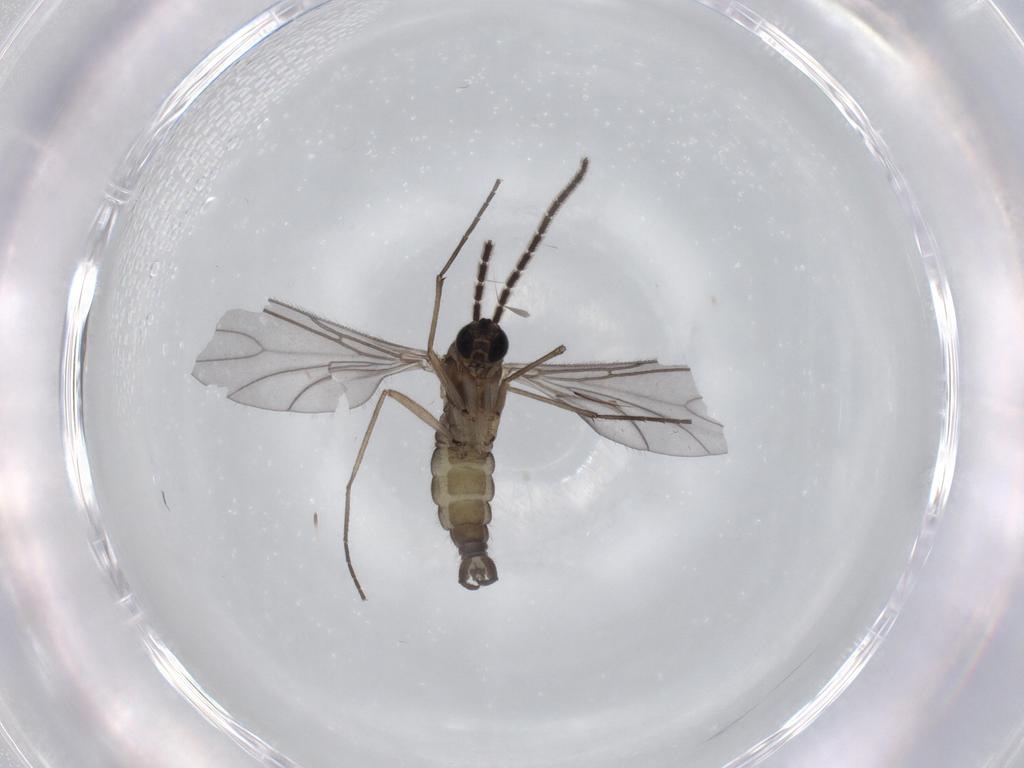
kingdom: Animalia
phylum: Arthropoda
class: Insecta
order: Diptera
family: Sciaridae
